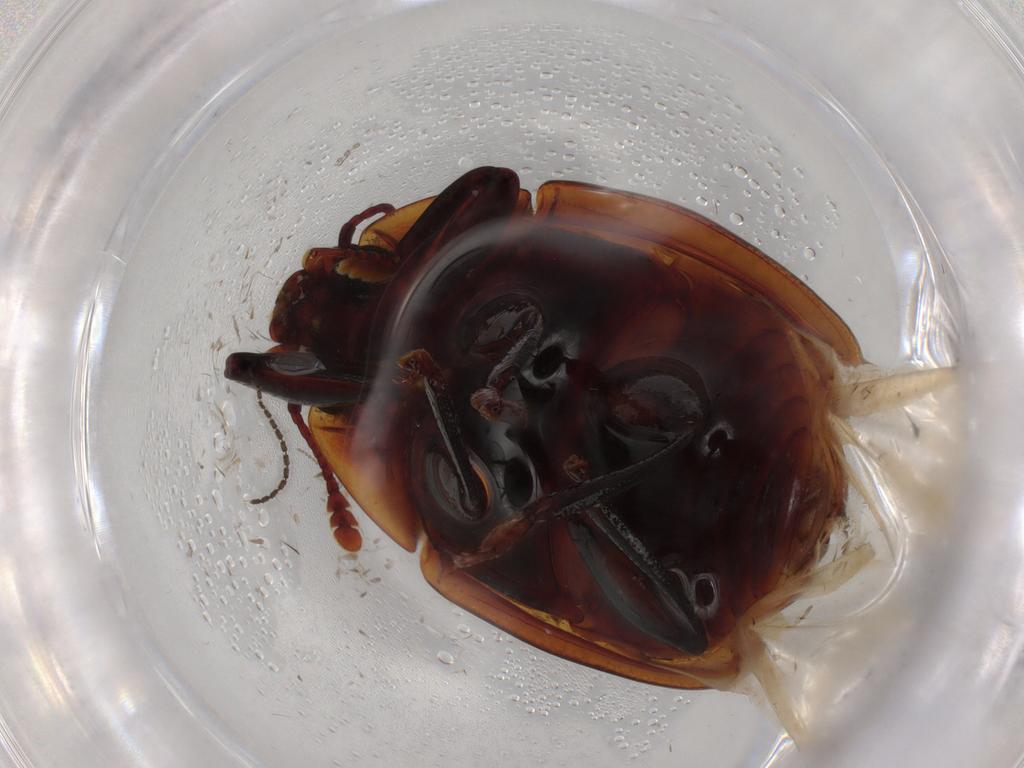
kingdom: Animalia
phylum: Arthropoda
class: Insecta
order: Coleoptera
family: Zopheridae
